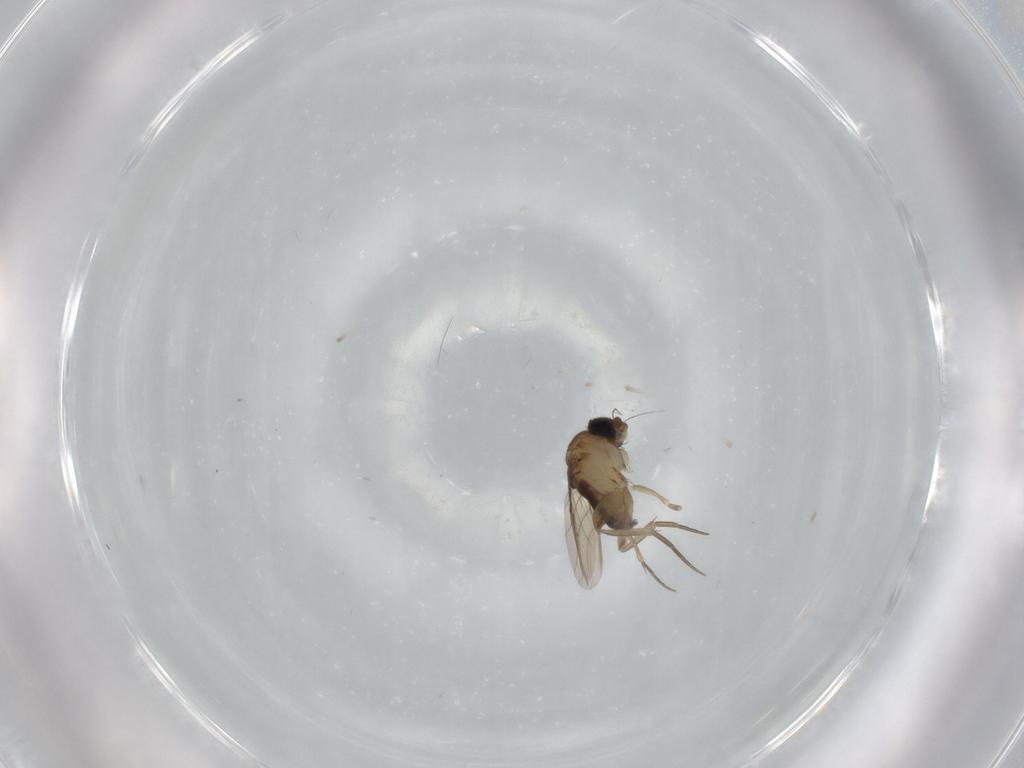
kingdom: Animalia
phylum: Arthropoda
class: Insecta
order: Diptera
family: Phoridae
